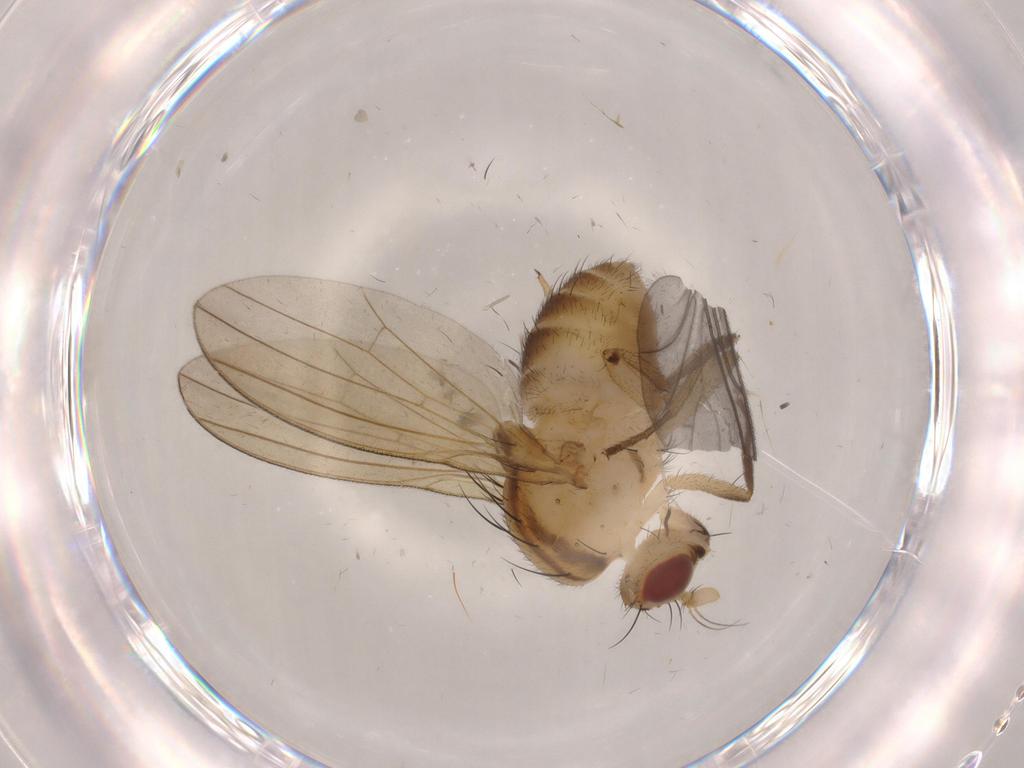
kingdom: Animalia
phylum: Arthropoda
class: Insecta
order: Diptera
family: Lauxaniidae
